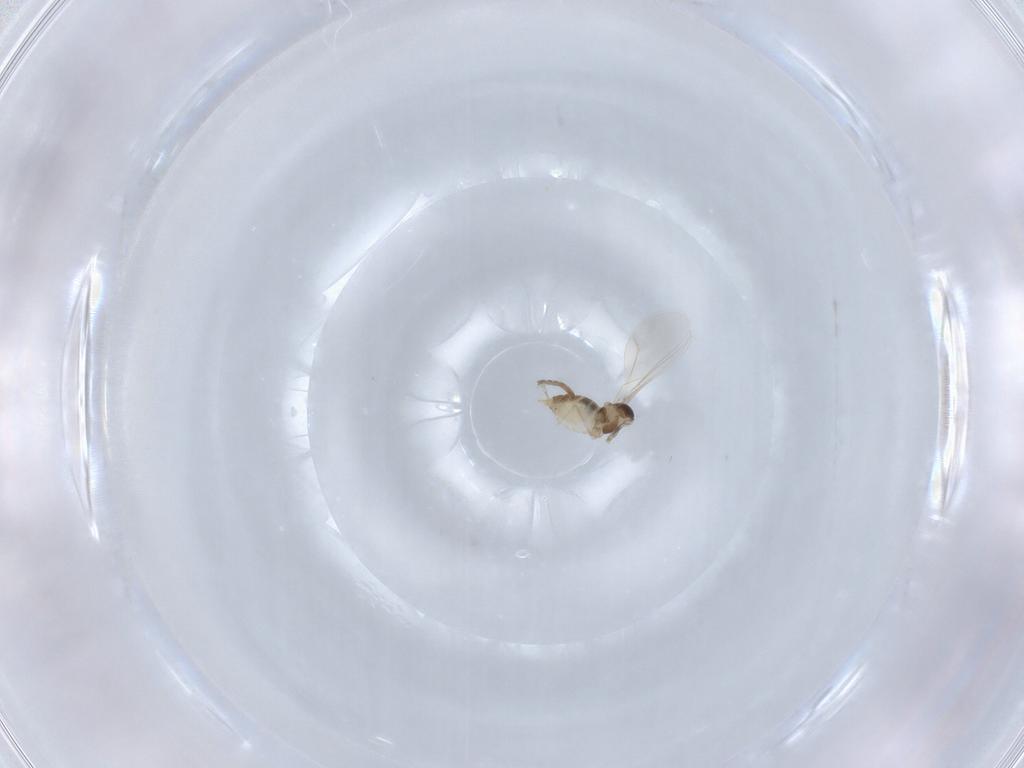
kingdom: Animalia
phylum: Arthropoda
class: Insecta
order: Diptera
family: Cecidomyiidae
